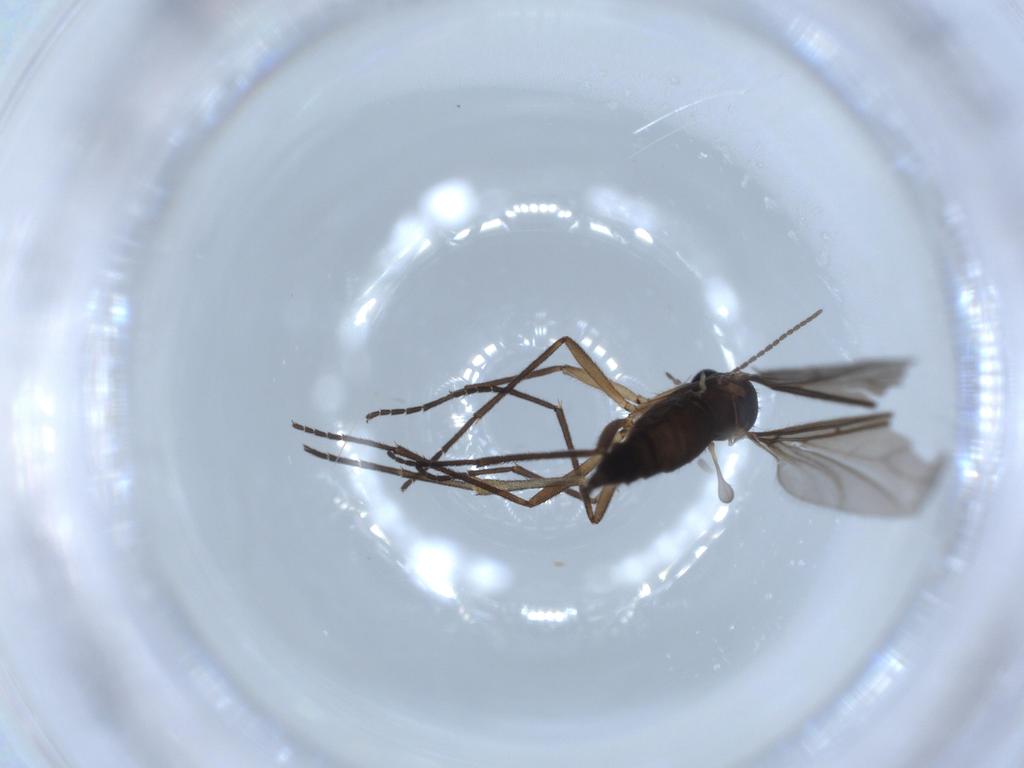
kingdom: Animalia
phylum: Arthropoda
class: Insecta
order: Diptera
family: Sciaridae
